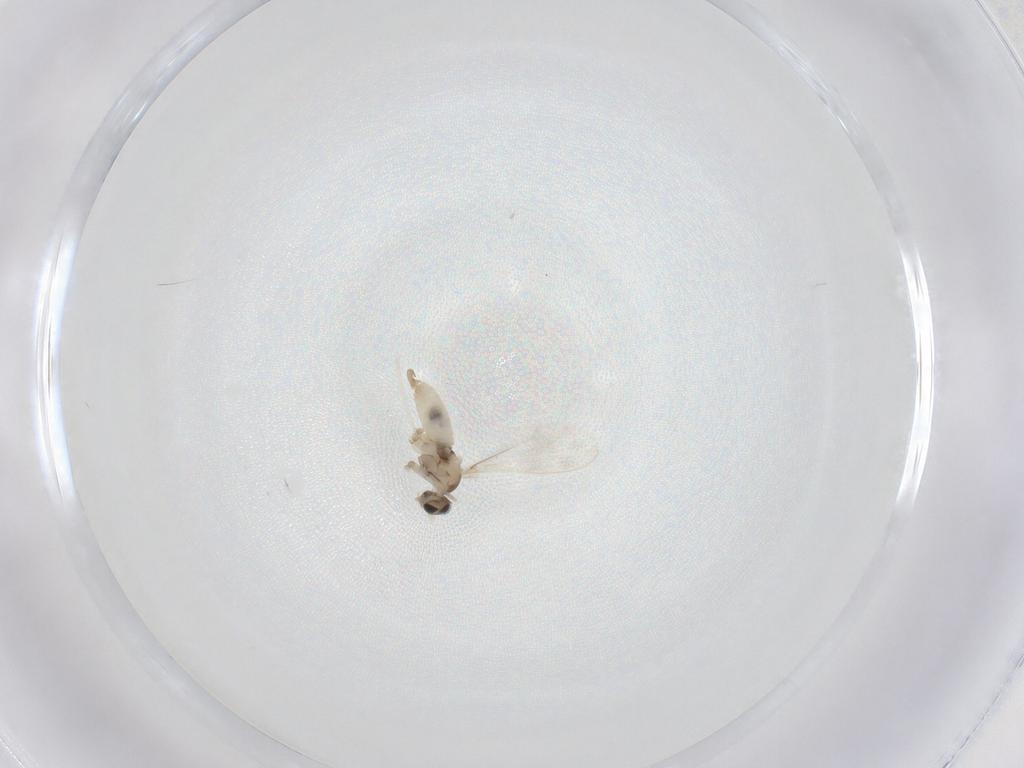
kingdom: Animalia
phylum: Arthropoda
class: Insecta
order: Diptera
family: Cecidomyiidae
